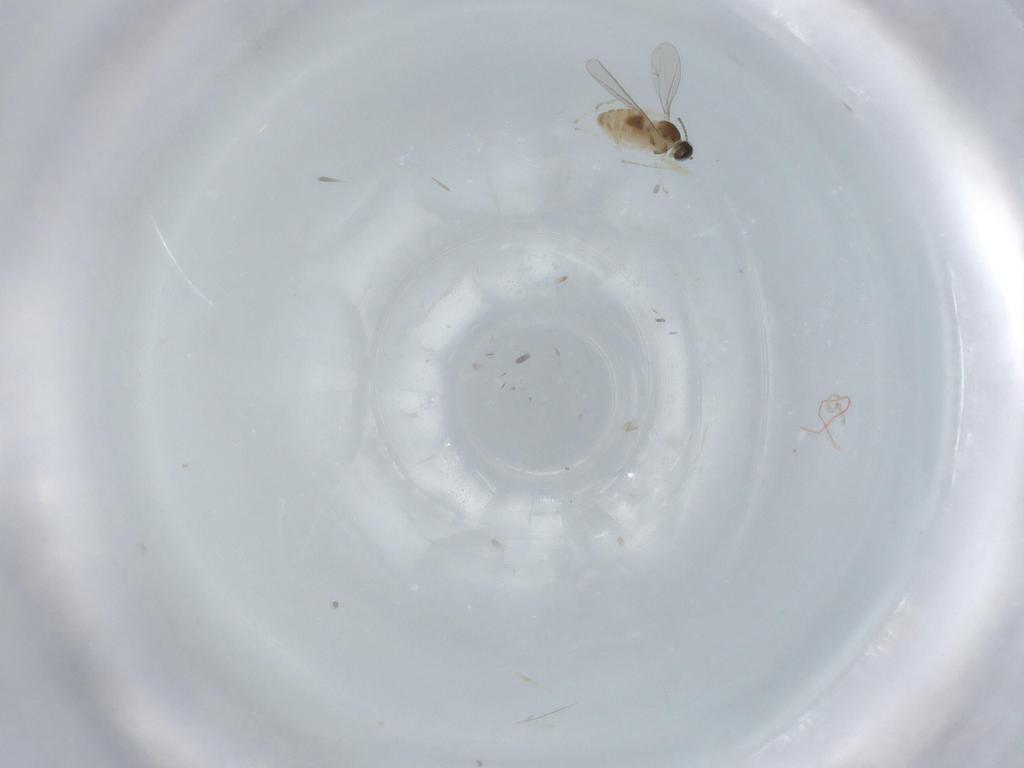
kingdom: Animalia
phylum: Arthropoda
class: Insecta
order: Diptera
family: Cecidomyiidae
